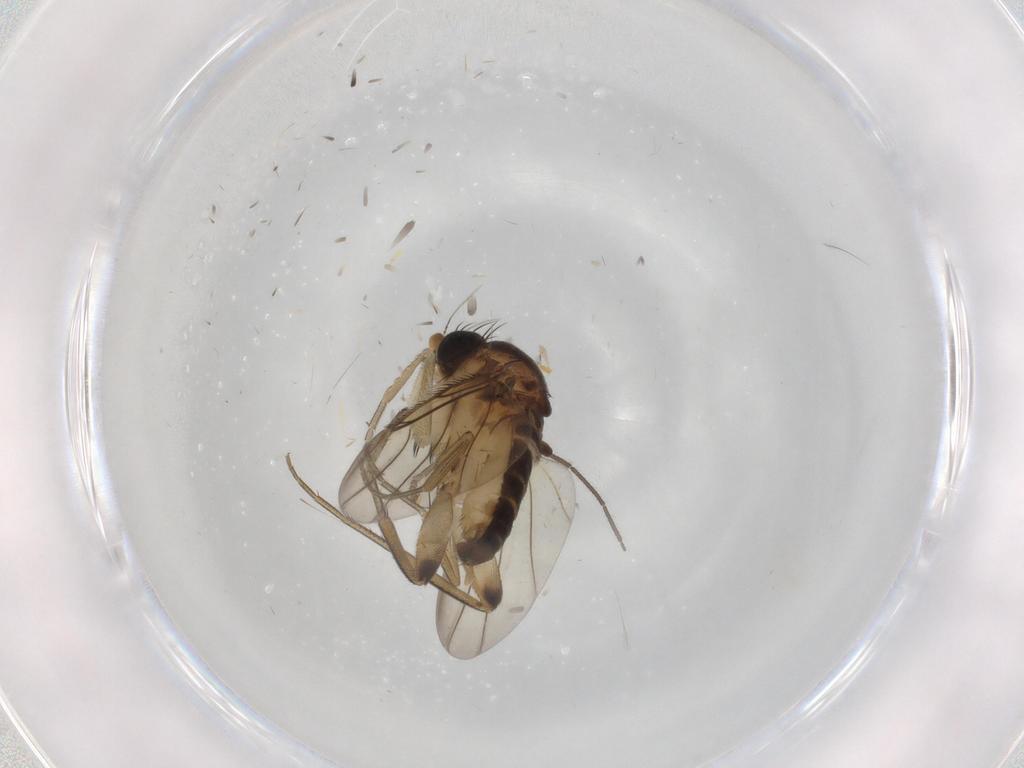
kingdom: Animalia
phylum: Arthropoda
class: Insecta
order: Diptera
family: Phoridae
